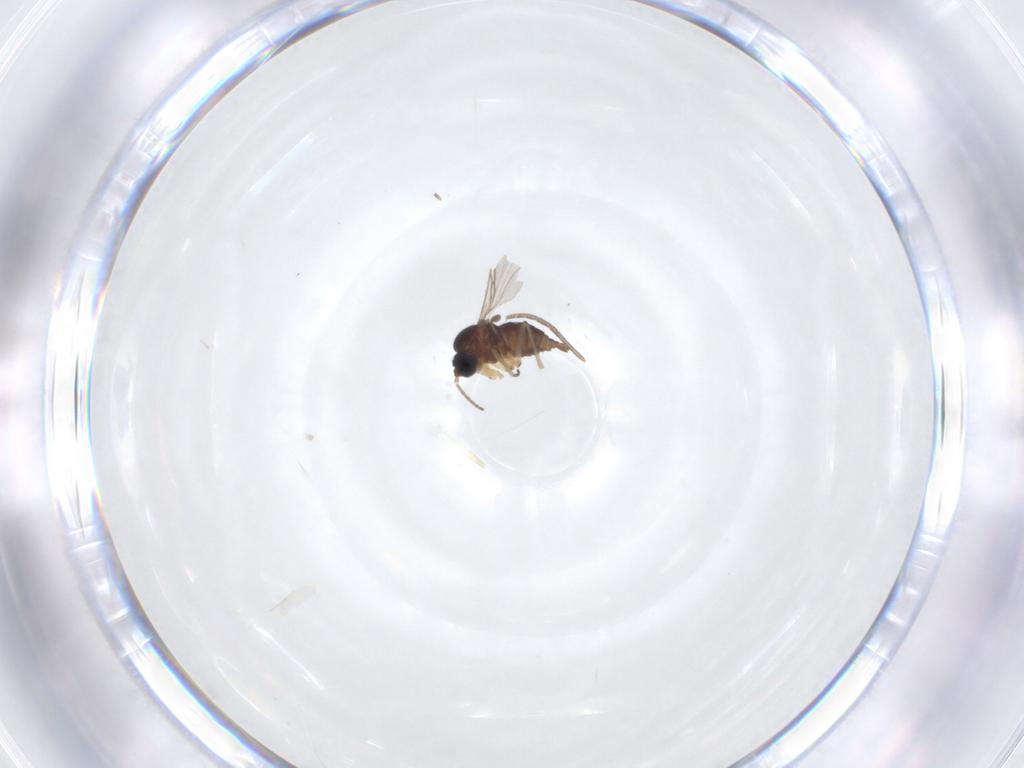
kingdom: Animalia
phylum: Arthropoda
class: Insecta
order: Diptera
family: Sciaridae
